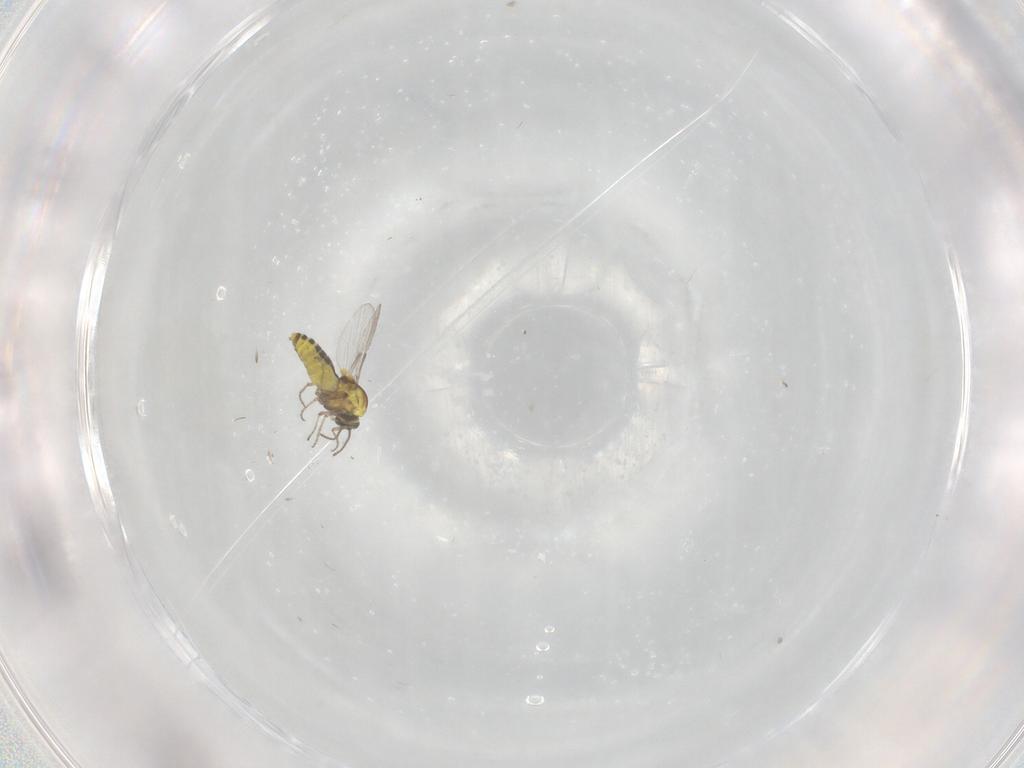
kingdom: Animalia
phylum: Arthropoda
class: Insecta
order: Diptera
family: Ceratopogonidae
